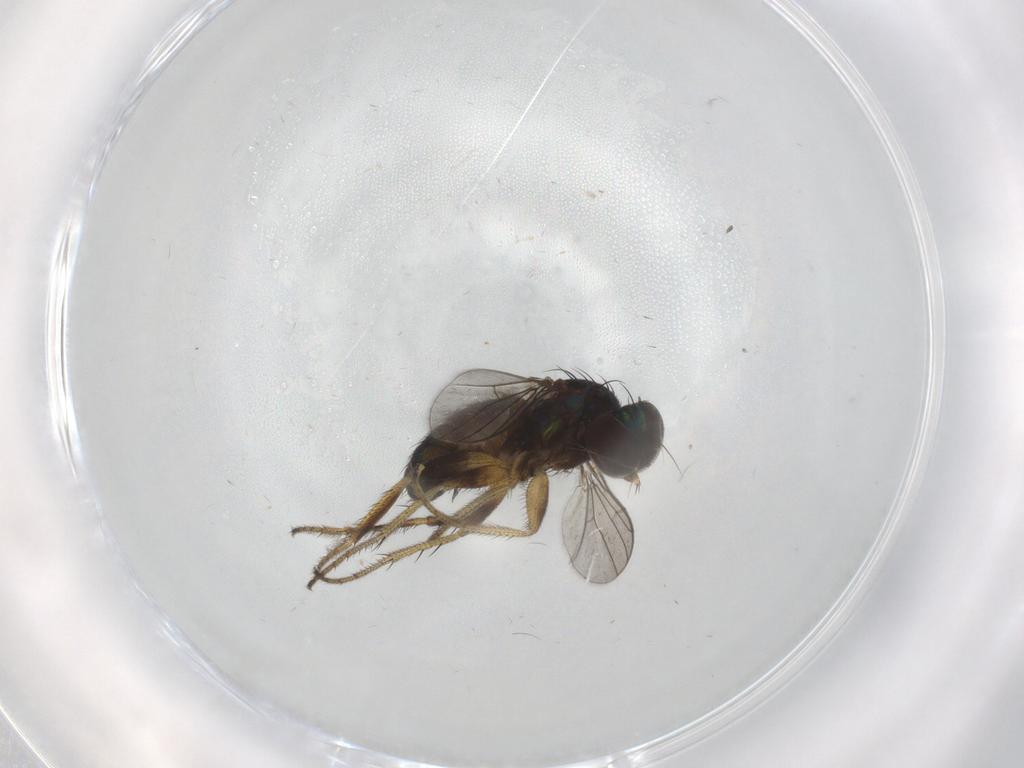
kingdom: Animalia
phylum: Arthropoda
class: Insecta
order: Diptera
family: Dolichopodidae
